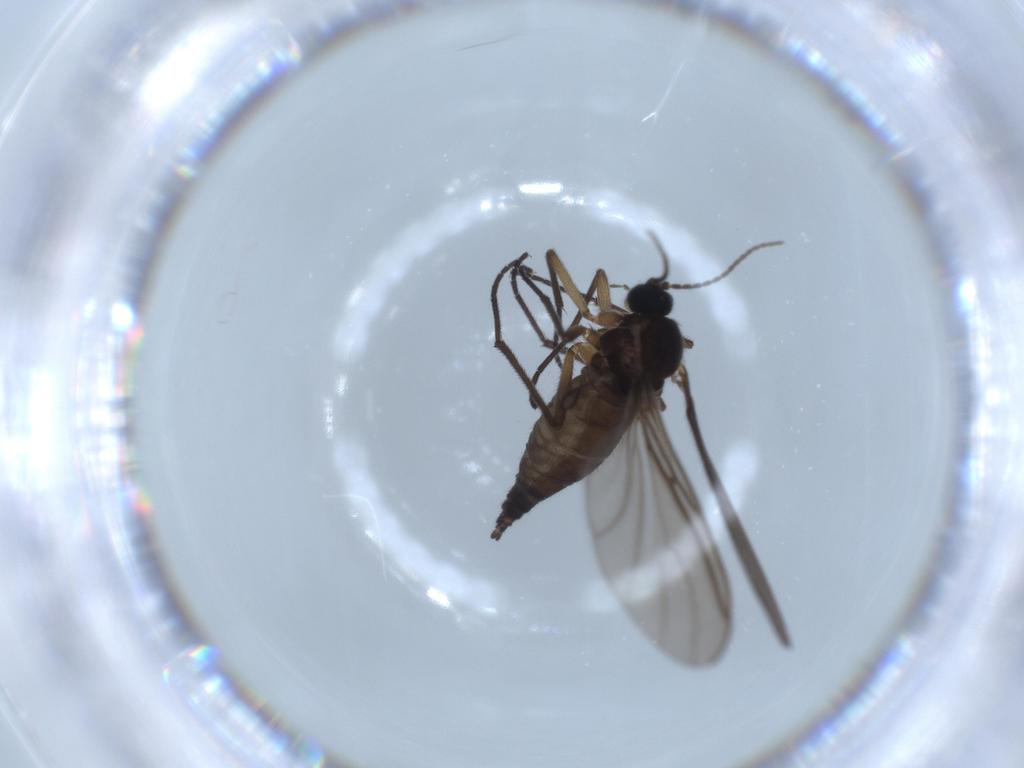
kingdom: Animalia
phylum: Arthropoda
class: Insecta
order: Diptera
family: Sciaridae
